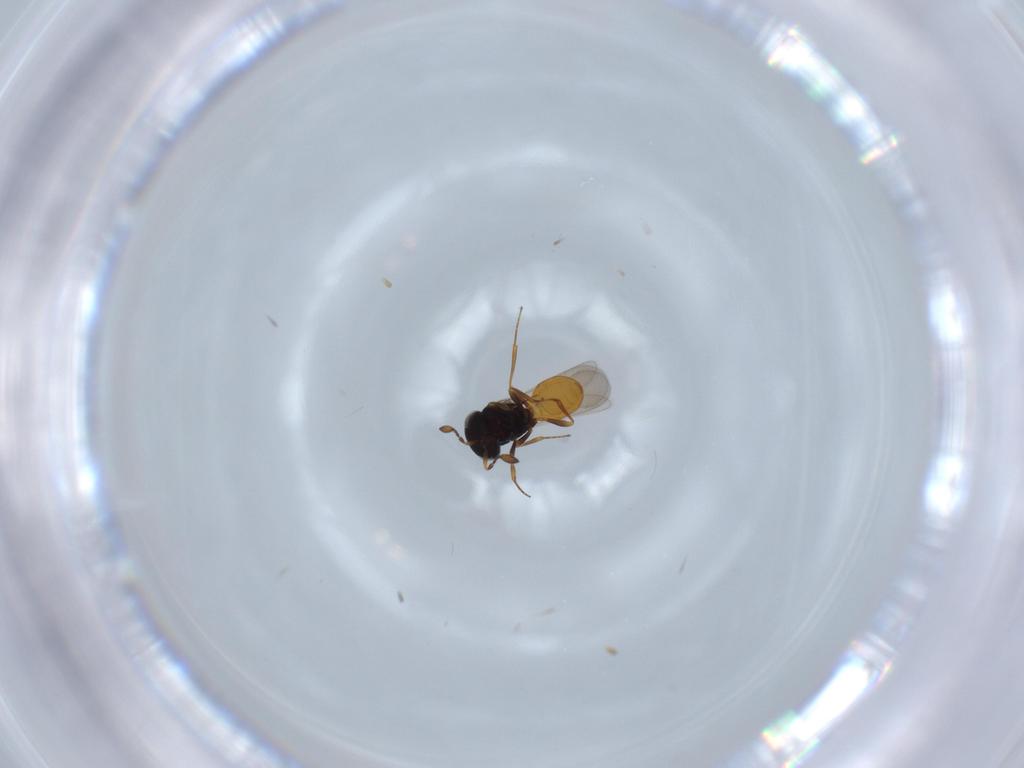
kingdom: Animalia
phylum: Arthropoda
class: Insecta
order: Hymenoptera
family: Scelionidae
